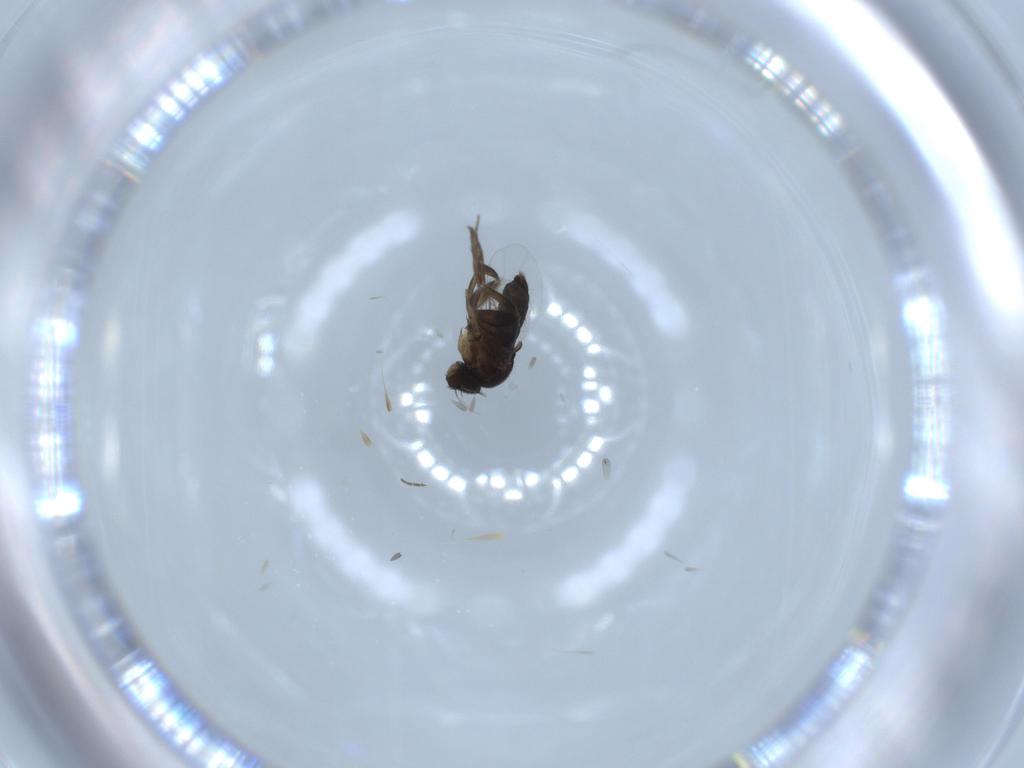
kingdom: Animalia
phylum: Arthropoda
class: Insecta
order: Diptera
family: Phoridae
